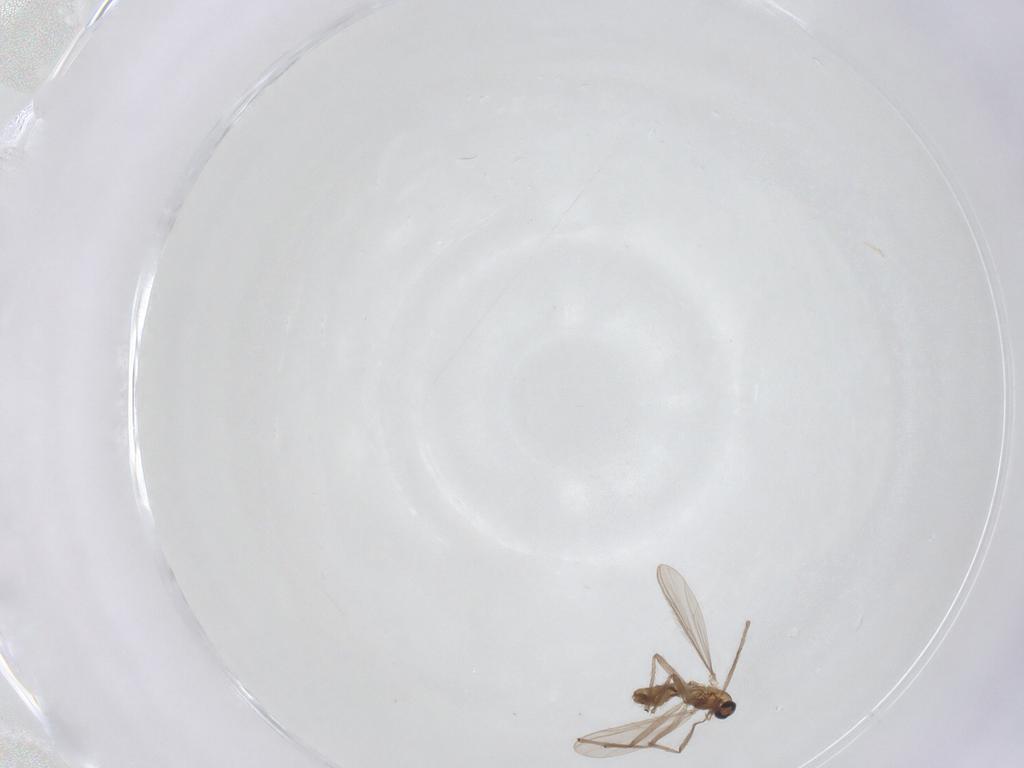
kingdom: Animalia
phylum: Arthropoda
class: Insecta
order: Diptera
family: Chironomidae
